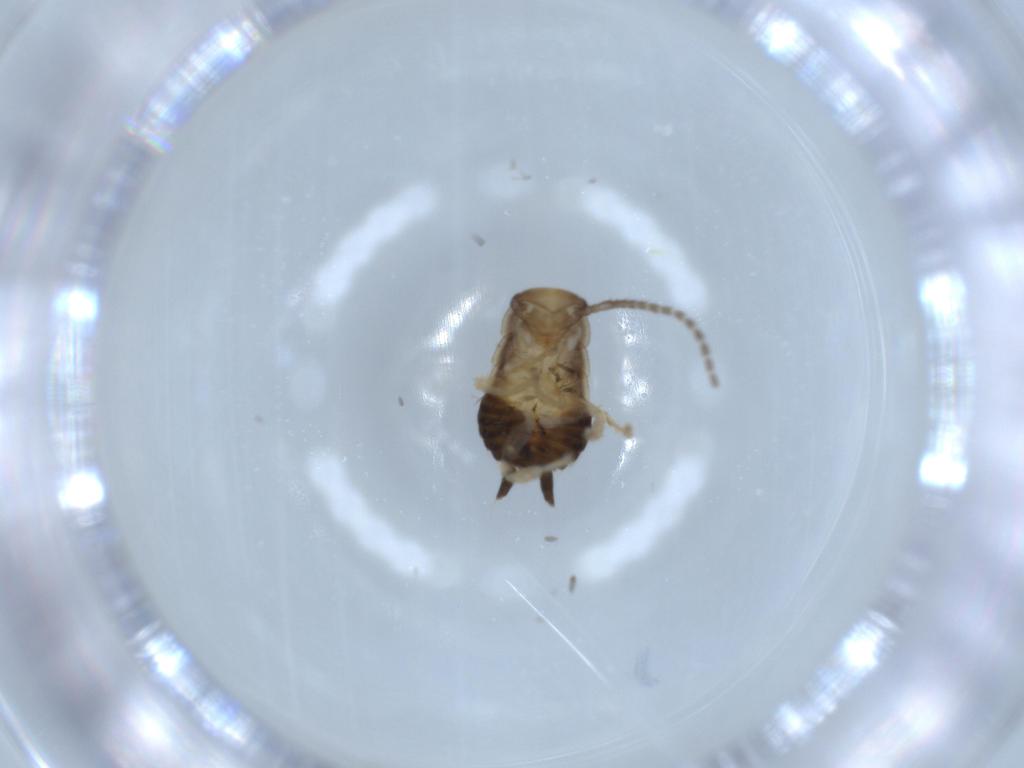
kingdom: Animalia
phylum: Arthropoda
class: Insecta
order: Blattodea
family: Ectobiidae
